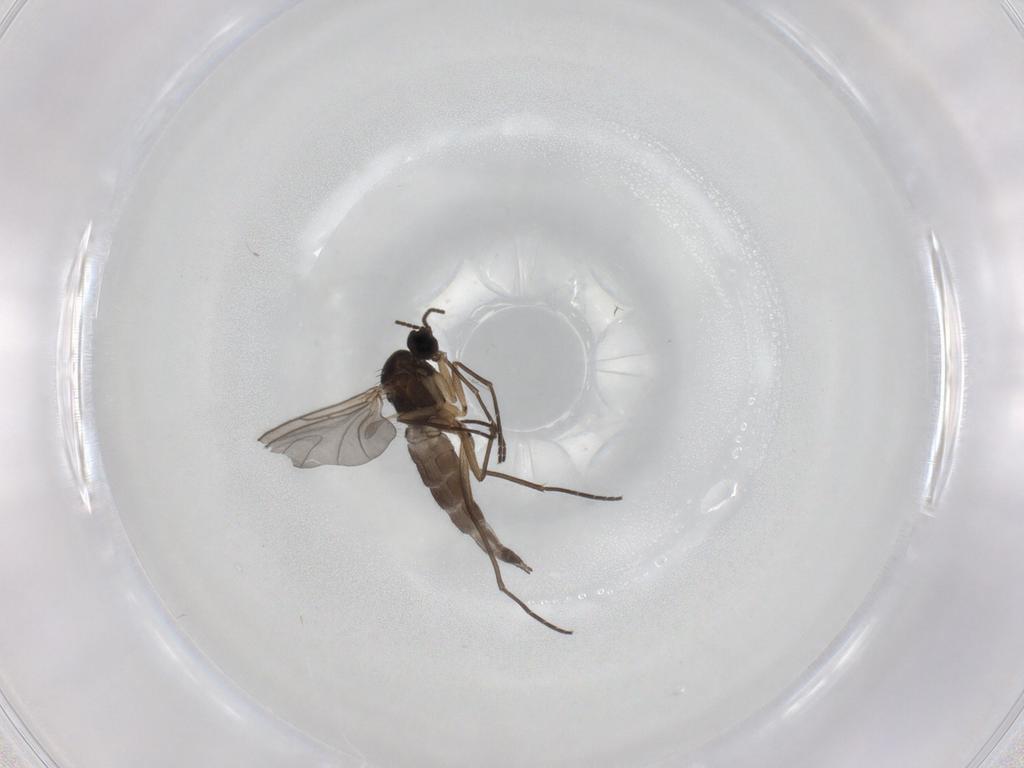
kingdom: Animalia
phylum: Arthropoda
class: Insecta
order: Diptera
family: Sciaridae
